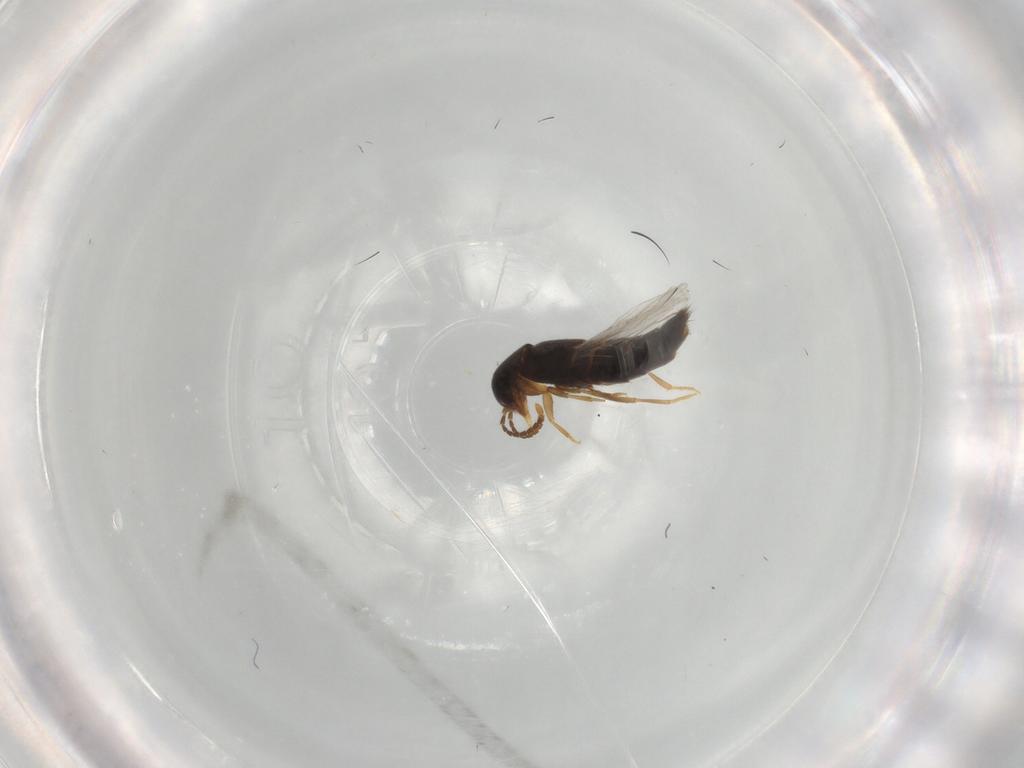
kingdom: Animalia
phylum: Arthropoda
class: Insecta
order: Coleoptera
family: Staphylinidae
